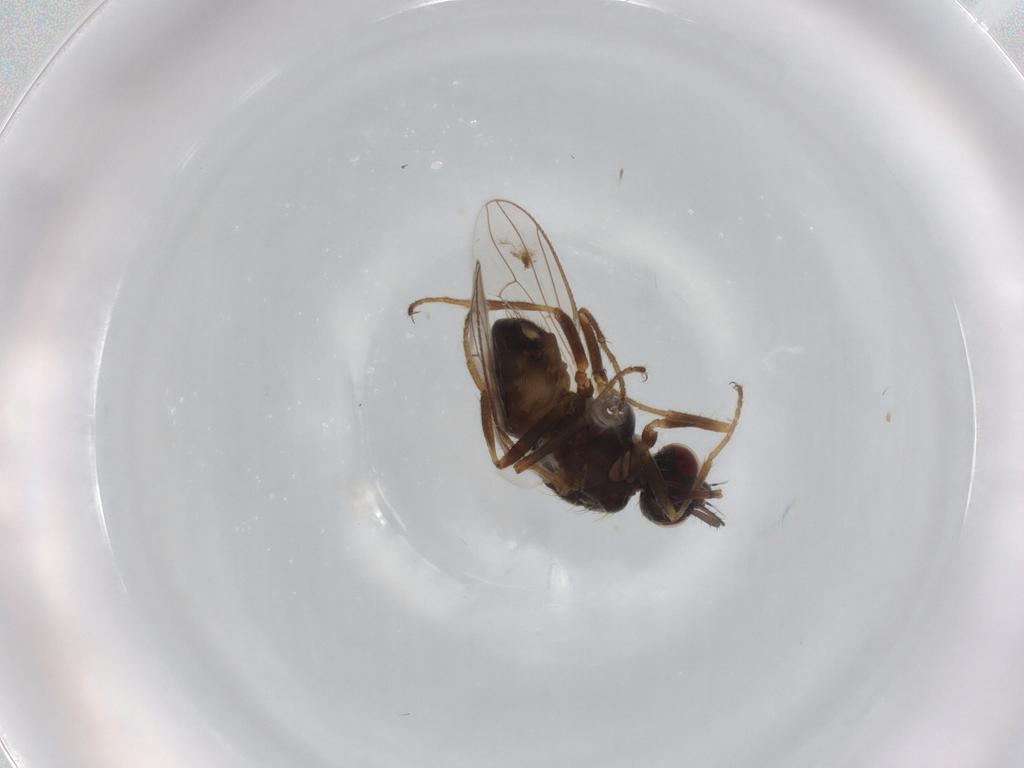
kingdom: Animalia
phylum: Arthropoda
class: Insecta
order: Diptera
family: Muscidae
